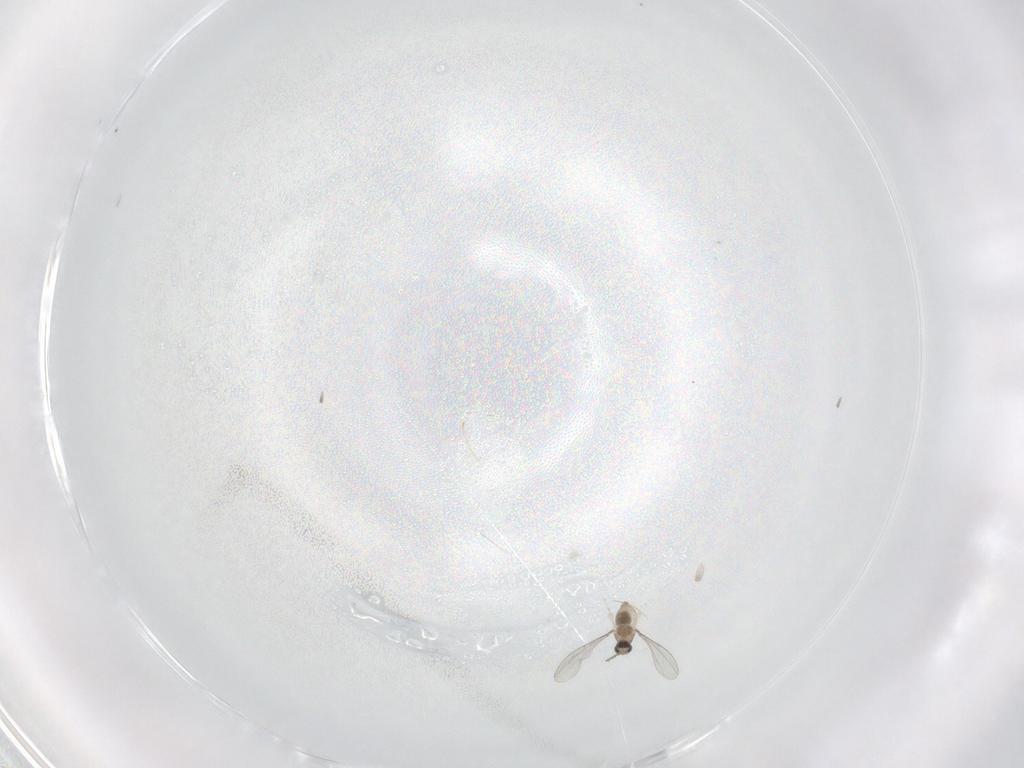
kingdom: Animalia
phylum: Arthropoda
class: Insecta
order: Diptera
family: Cecidomyiidae
